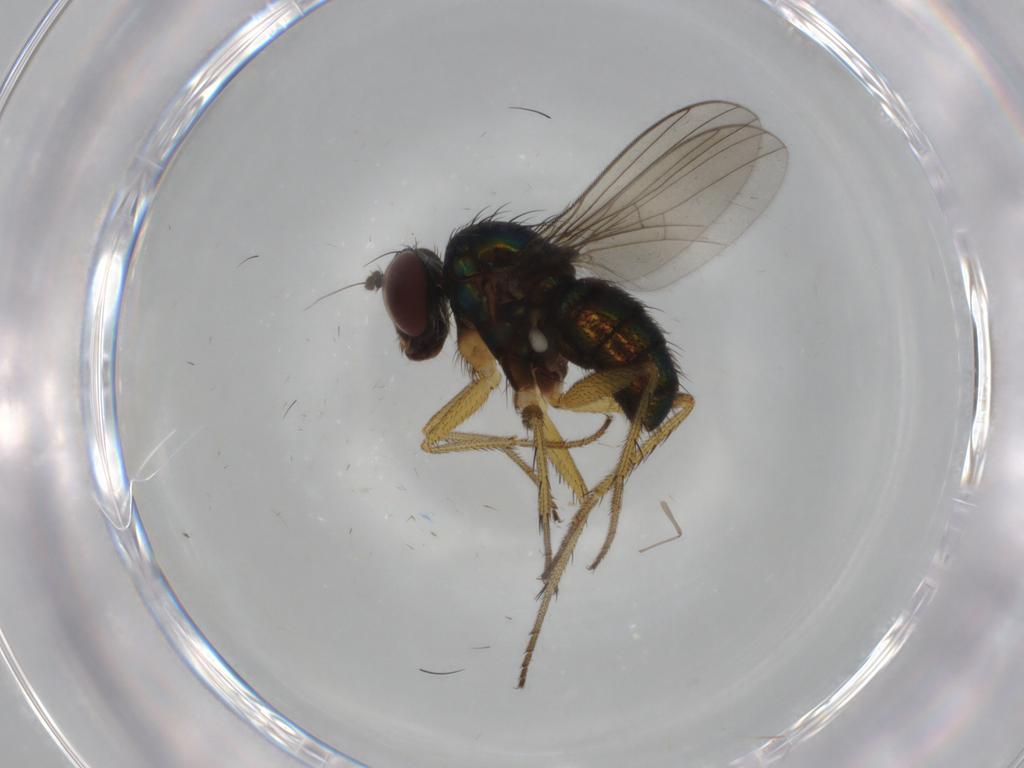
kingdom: Animalia
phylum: Arthropoda
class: Insecta
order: Diptera
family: Dolichopodidae
